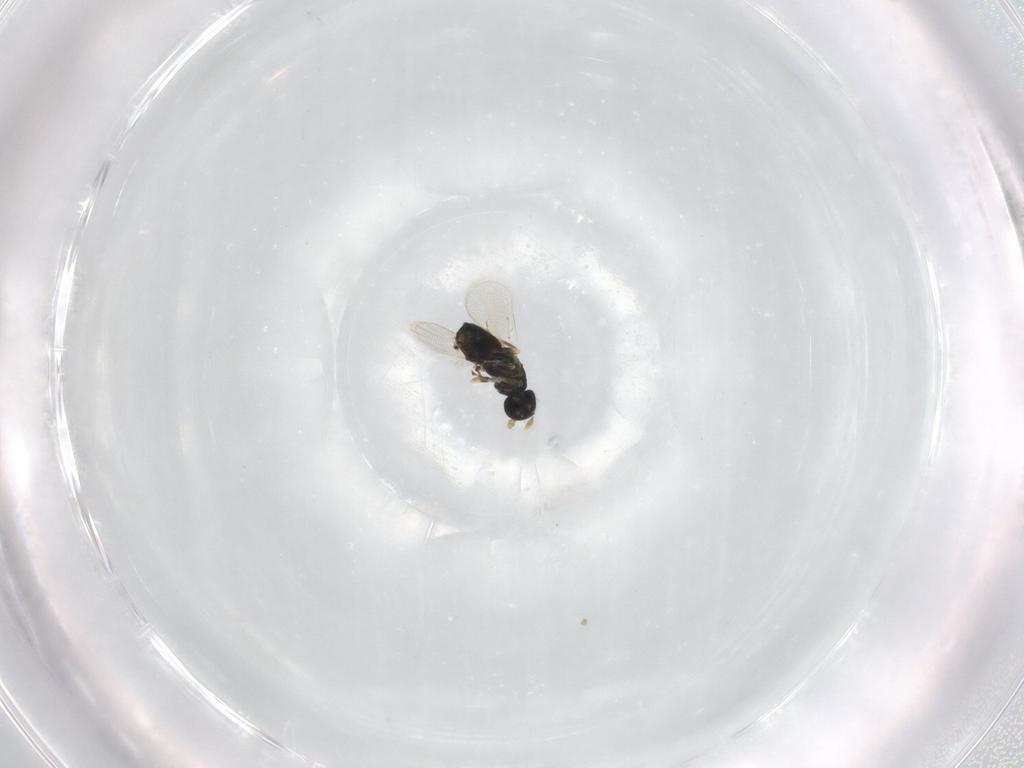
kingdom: Animalia
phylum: Arthropoda
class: Insecta
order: Hymenoptera
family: Eulophidae
